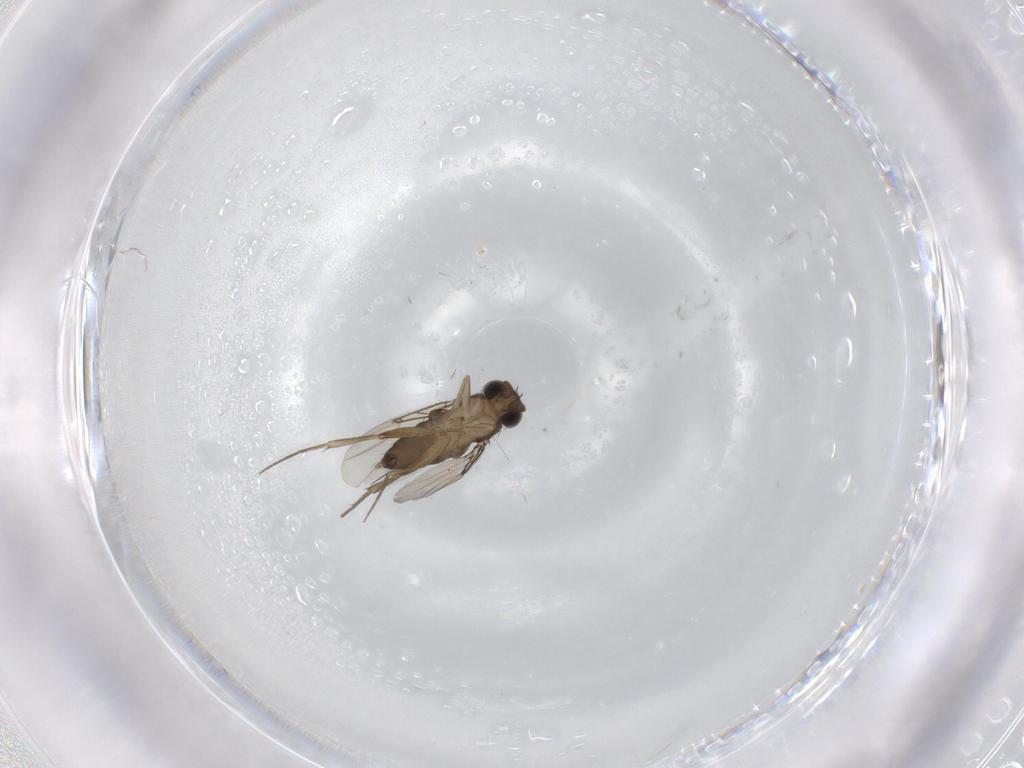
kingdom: Animalia
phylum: Arthropoda
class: Insecta
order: Diptera
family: Phoridae
